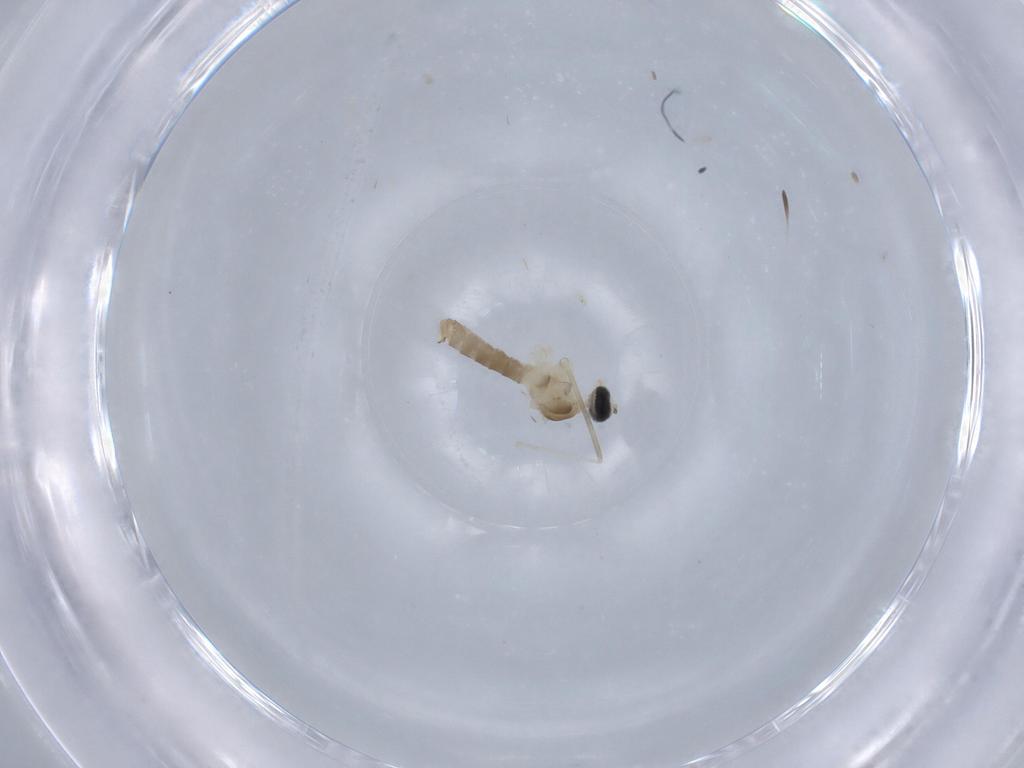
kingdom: Animalia
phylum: Arthropoda
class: Insecta
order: Diptera
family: Cecidomyiidae
